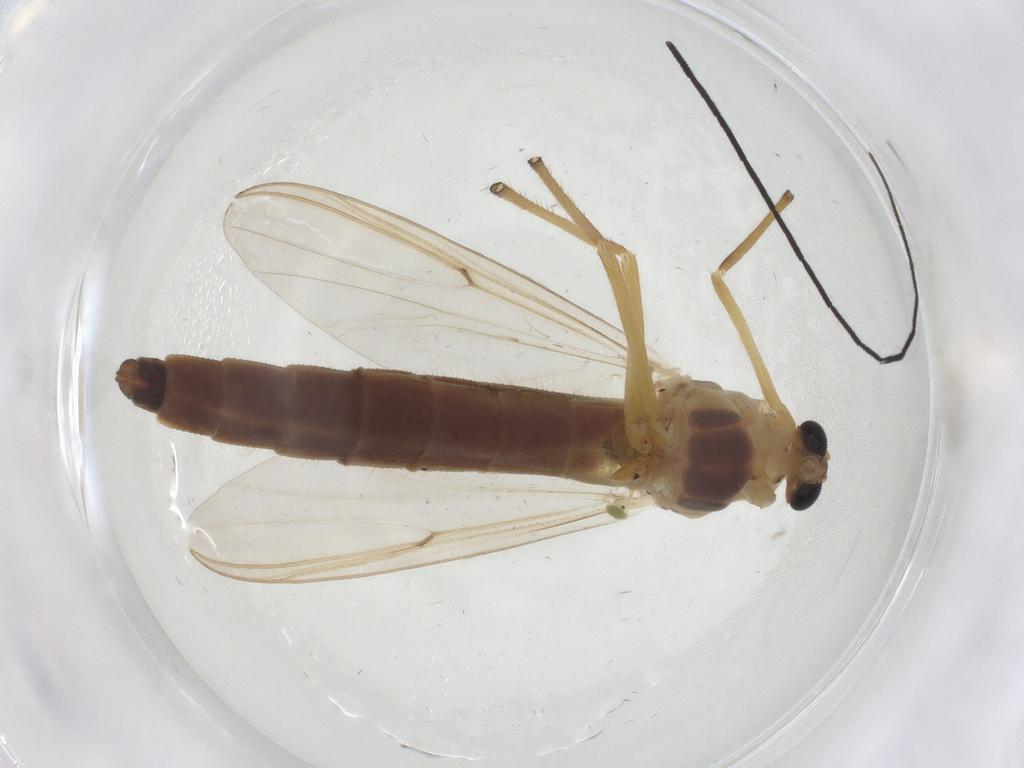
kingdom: Animalia
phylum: Arthropoda
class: Insecta
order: Diptera
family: Chironomidae
